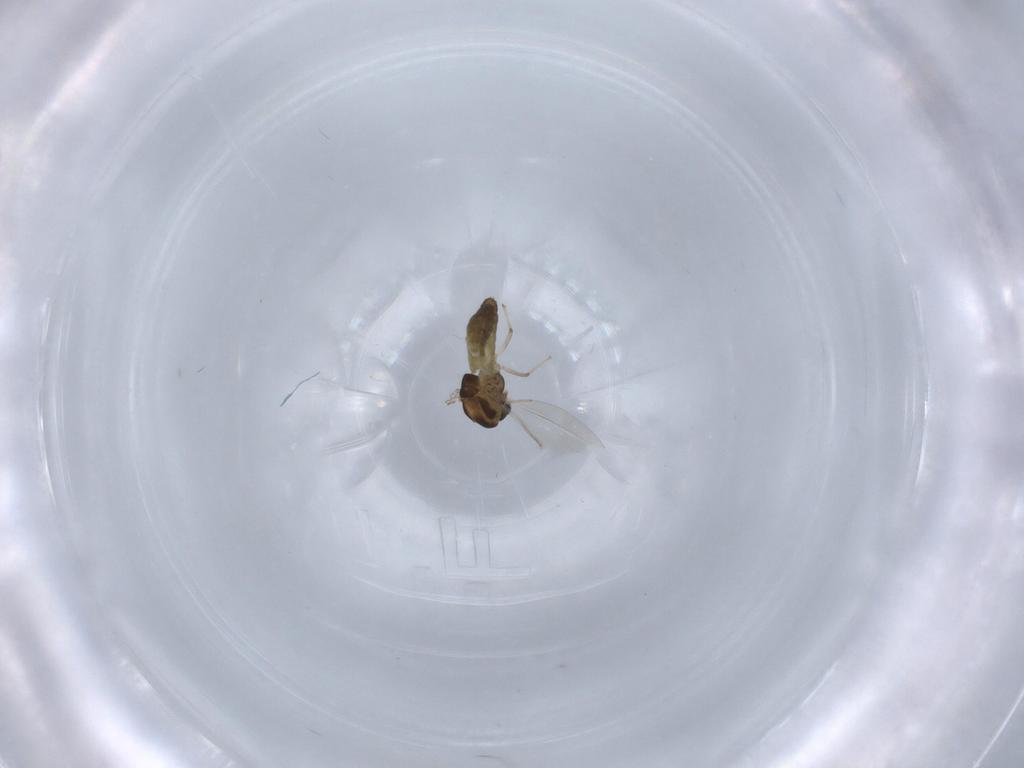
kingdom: Animalia
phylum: Arthropoda
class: Insecta
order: Diptera
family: Chironomidae
